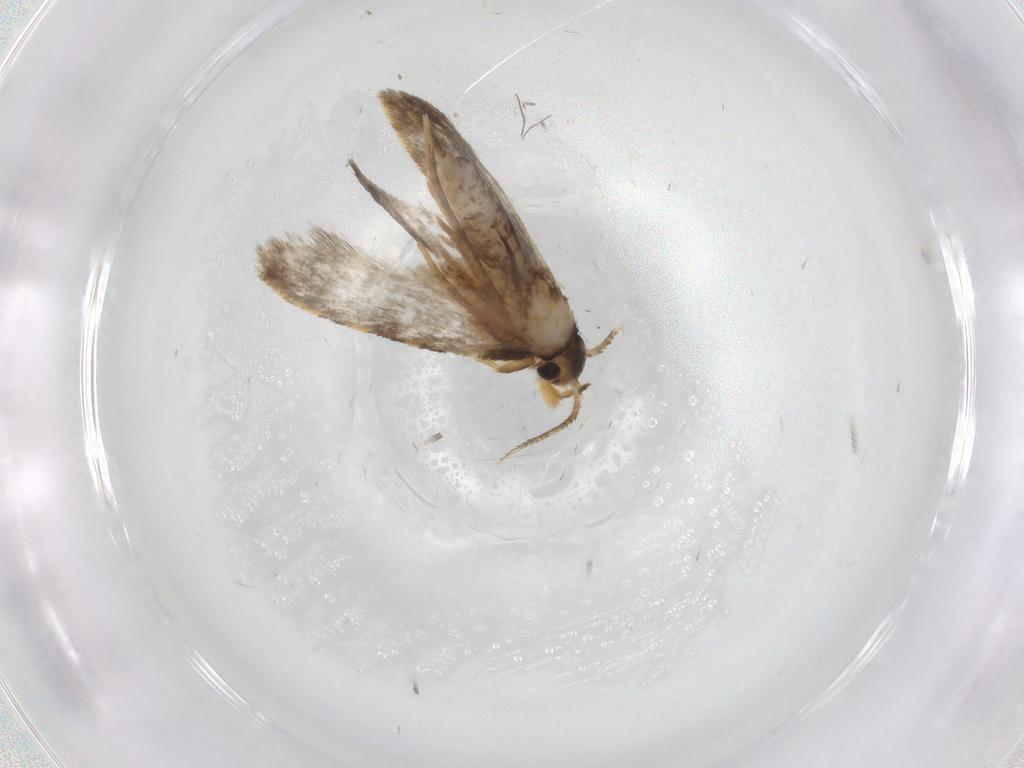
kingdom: Animalia
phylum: Arthropoda
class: Insecta
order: Lepidoptera
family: Psychidae
